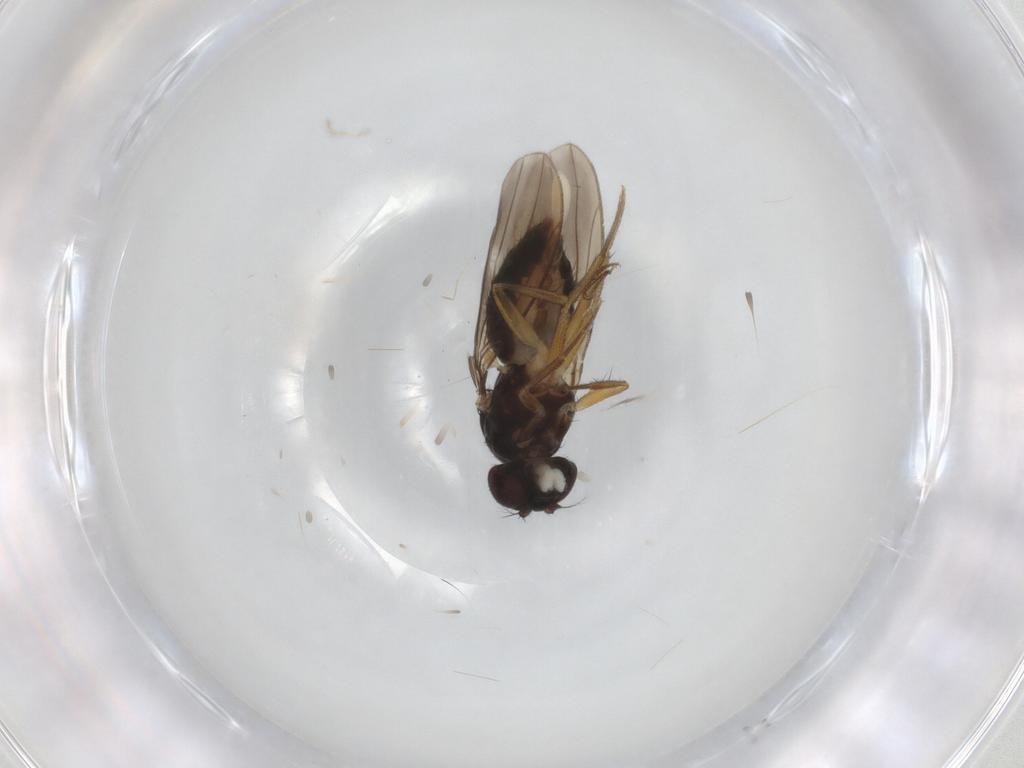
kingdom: Animalia
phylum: Arthropoda
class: Insecta
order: Diptera
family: Drosophilidae
